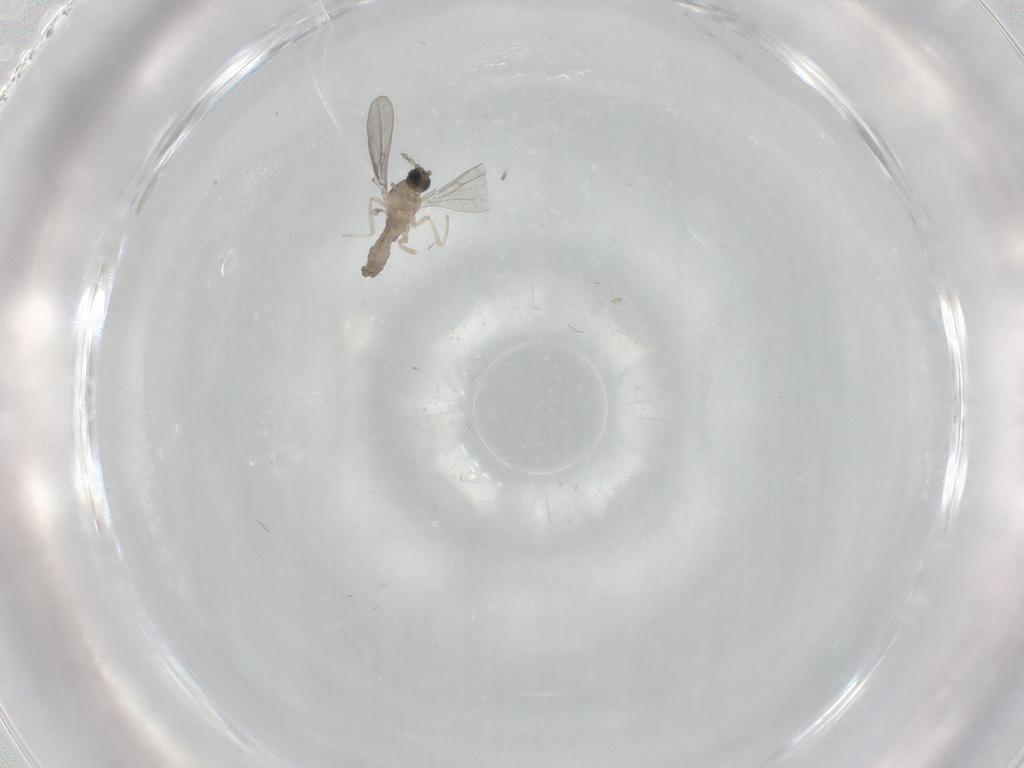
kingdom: Animalia
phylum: Arthropoda
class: Insecta
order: Diptera
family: Cecidomyiidae
